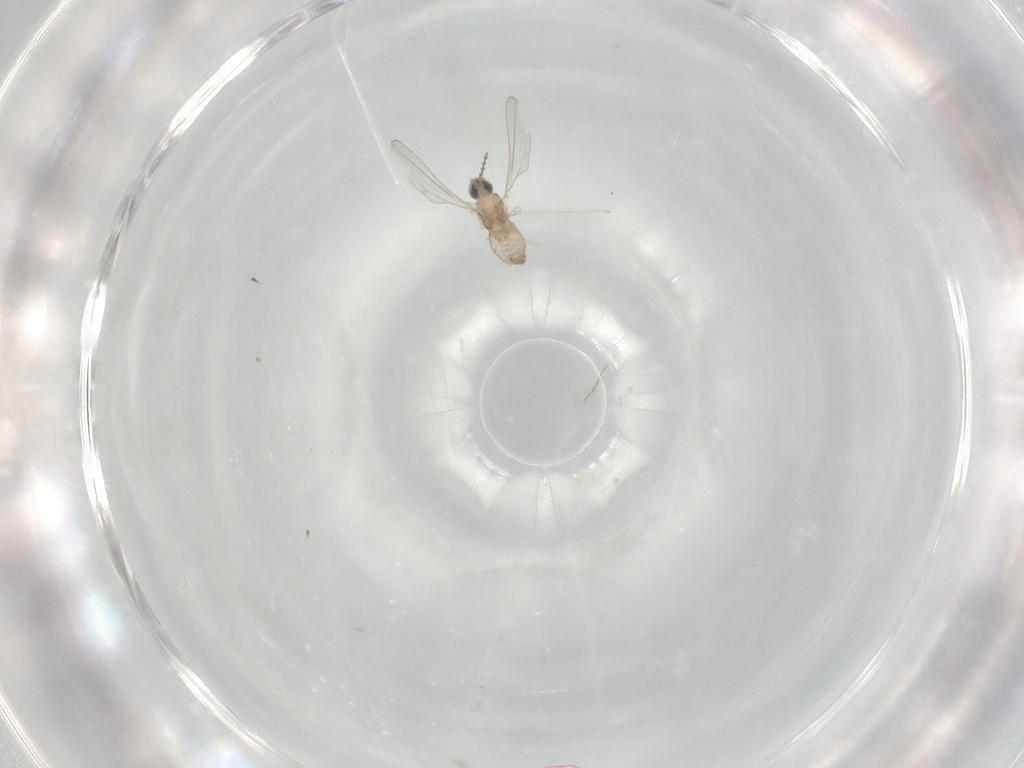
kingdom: Animalia
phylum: Arthropoda
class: Insecta
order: Diptera
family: Cecidomyiidae
